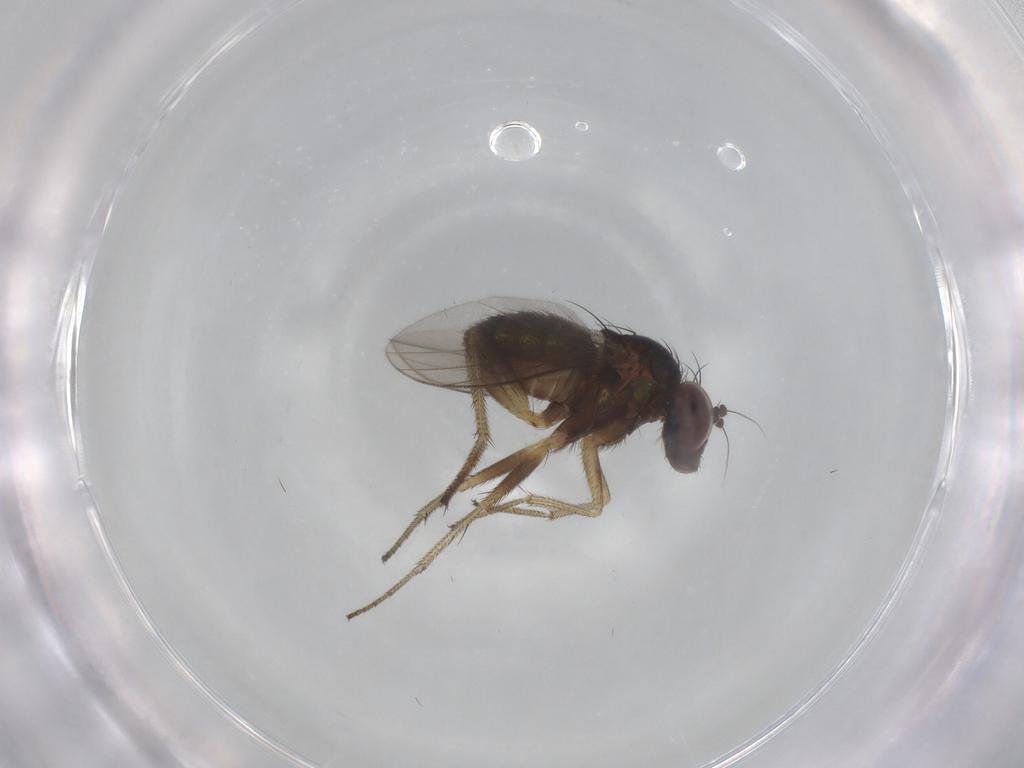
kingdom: Animalia
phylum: Arthropoda
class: Insecta
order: Diptera
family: Dolichopodidae
